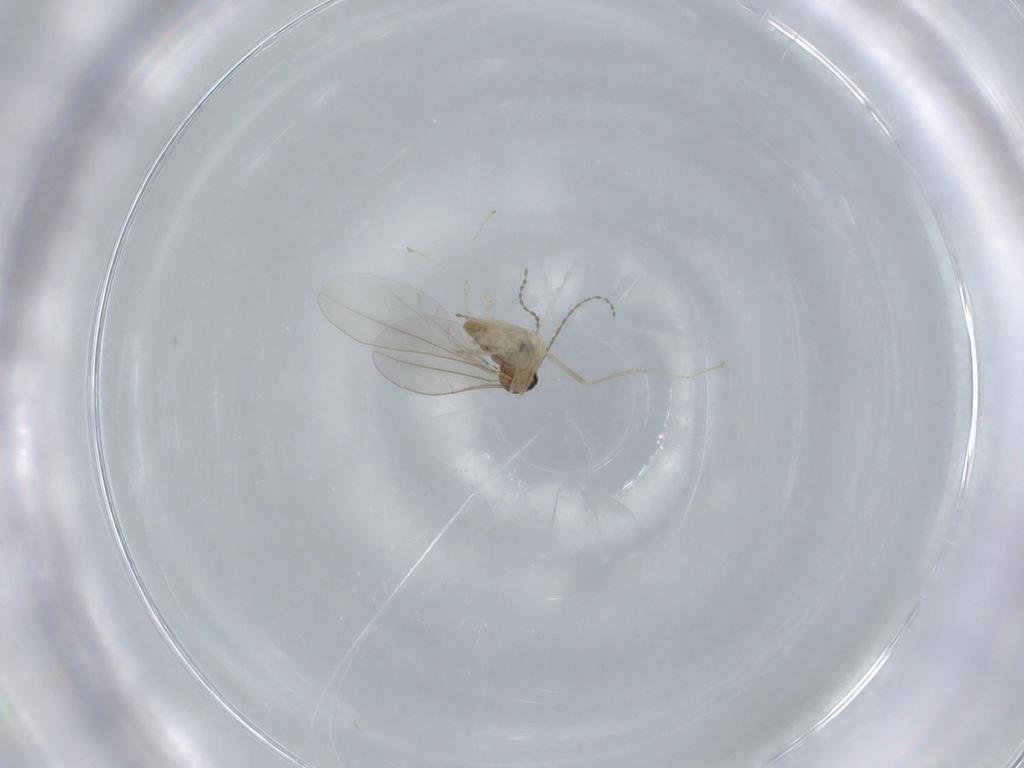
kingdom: Animalia
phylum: Arthropoda
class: Insecta
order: Diptera
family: Cecidomyiidae
